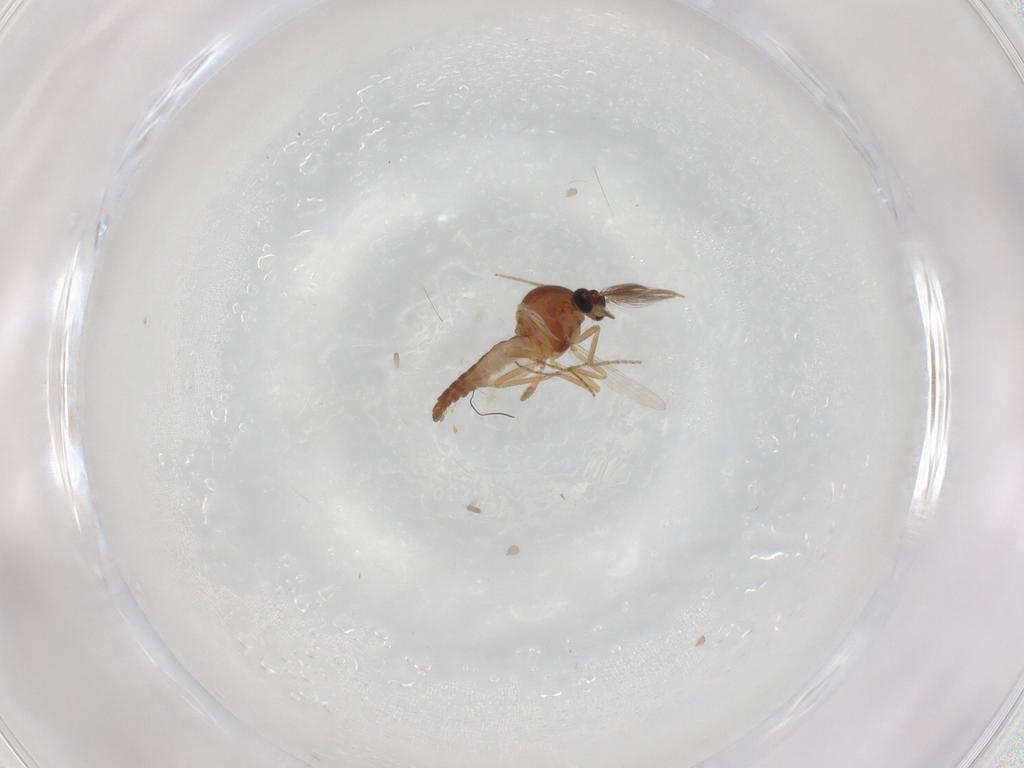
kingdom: Animalia
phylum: Arthropoda
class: Insecta
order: Diptera
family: Ceratopogonidae
